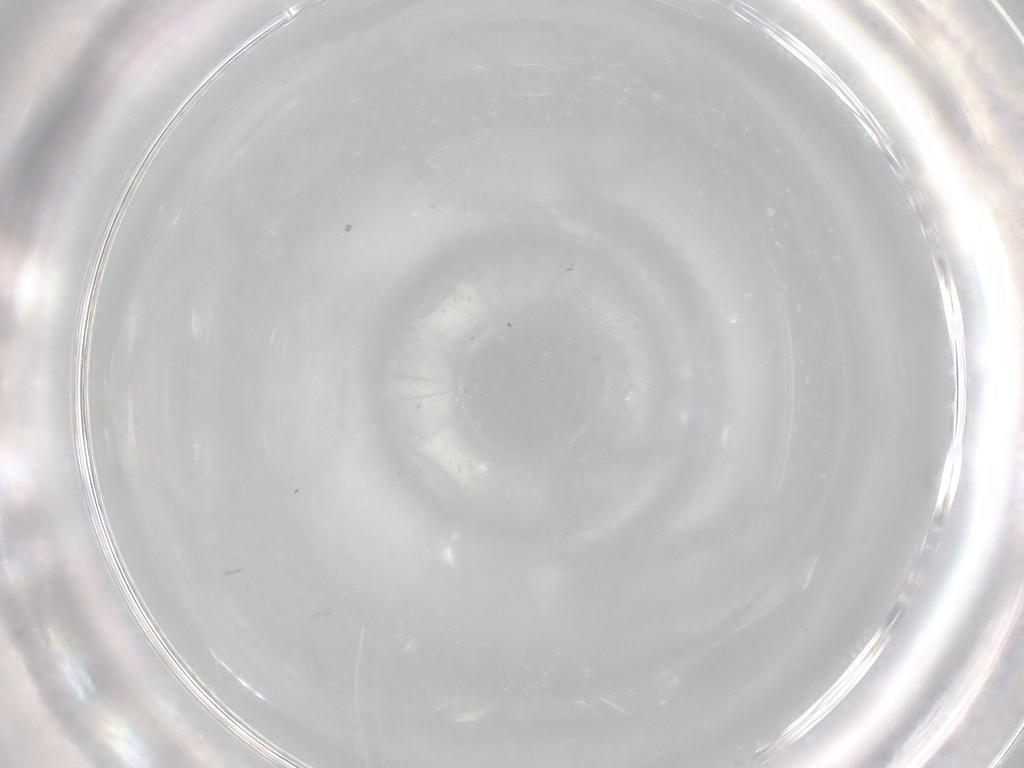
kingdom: Animalia
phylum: Arthropoda
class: Insecta
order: Diptera
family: Ceratopogonidae
